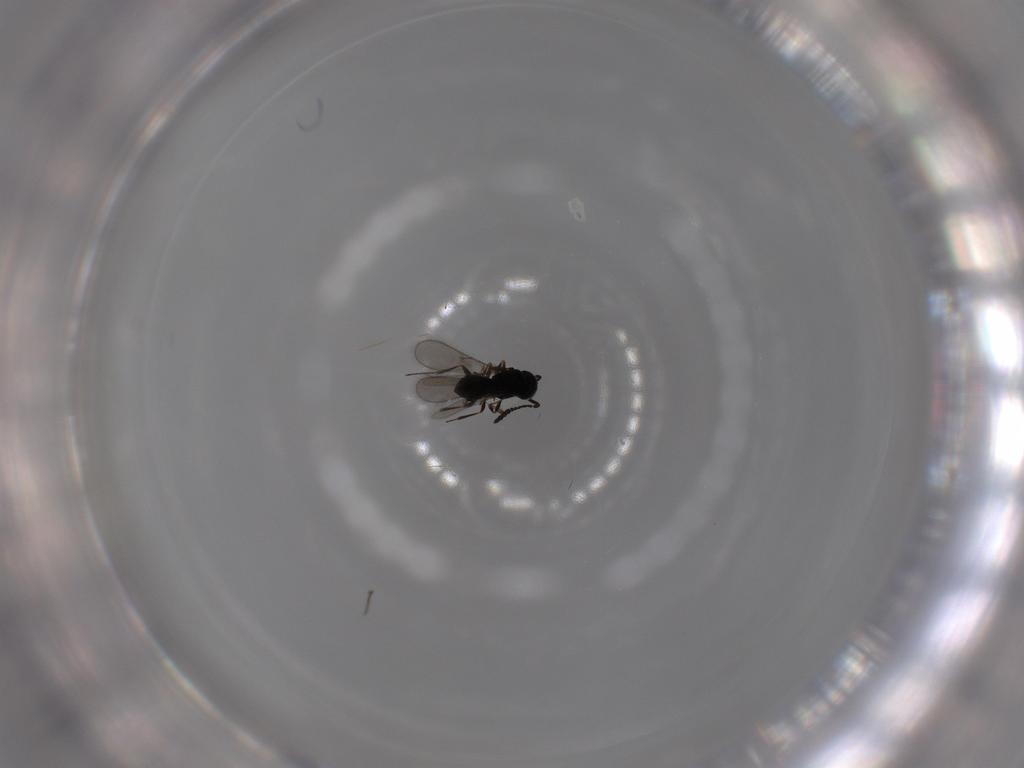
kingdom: Animalia
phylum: Arthropoda
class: Insecta
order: Hymenoptera
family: Scelionidae
